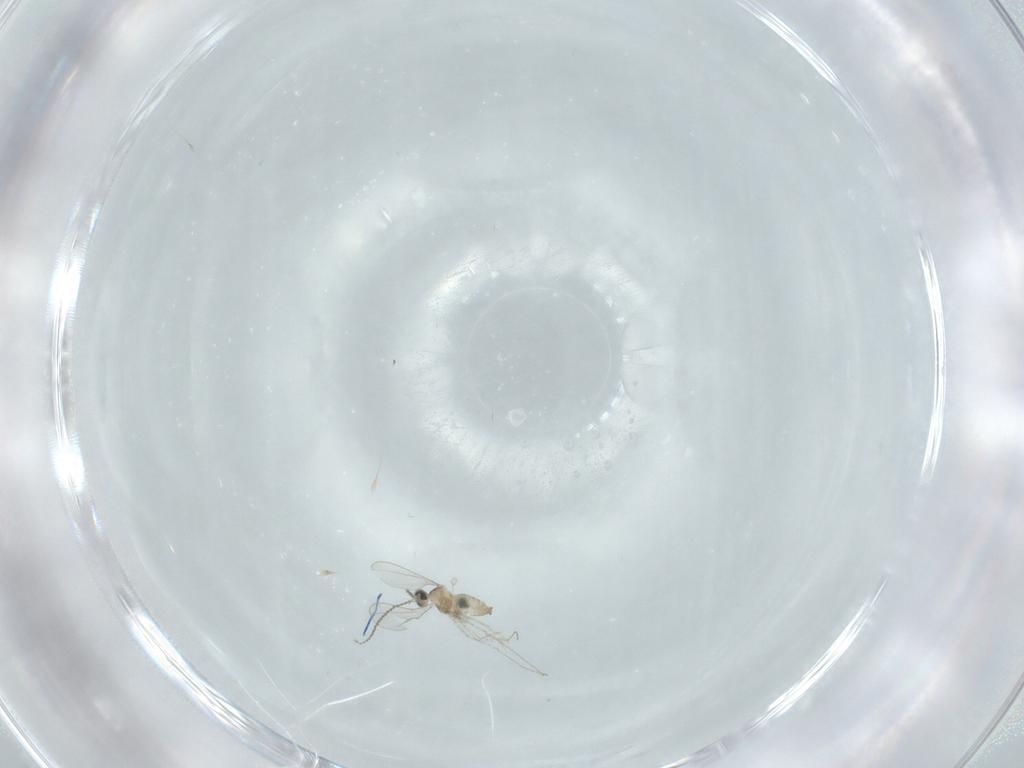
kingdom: Animalia
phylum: Arthropoda
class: Insecta
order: Diptera
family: Cecidomyiidae
